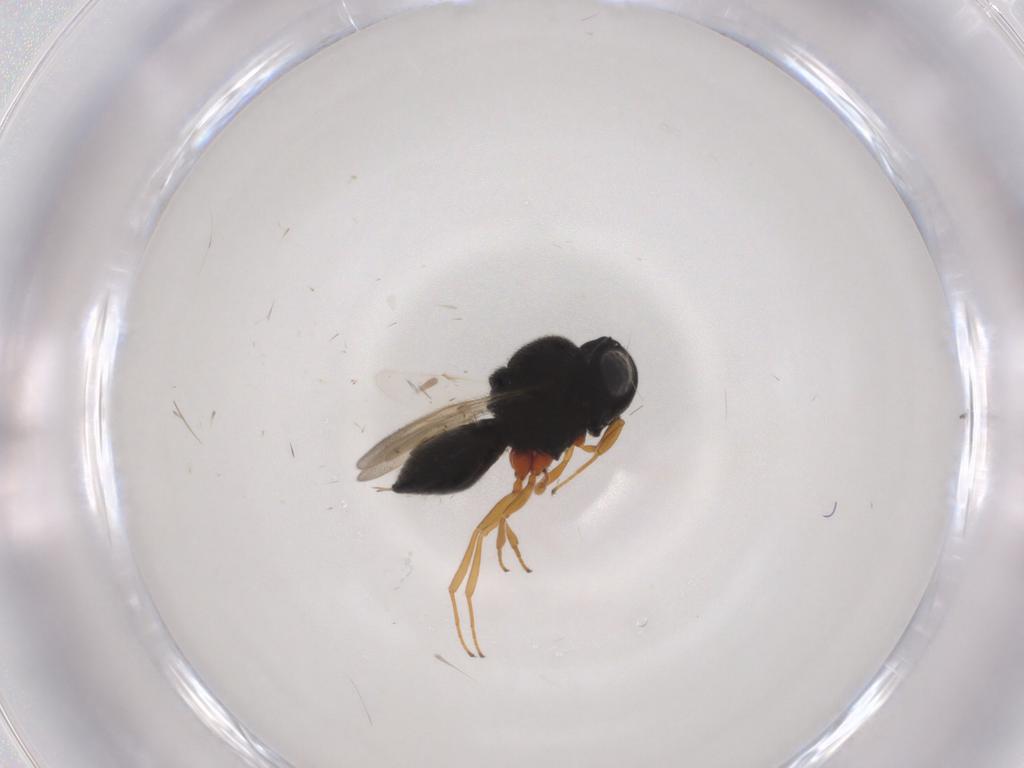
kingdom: Animalia
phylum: Arthropoda
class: Insecta
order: Hymenoptera
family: Scelionidae
